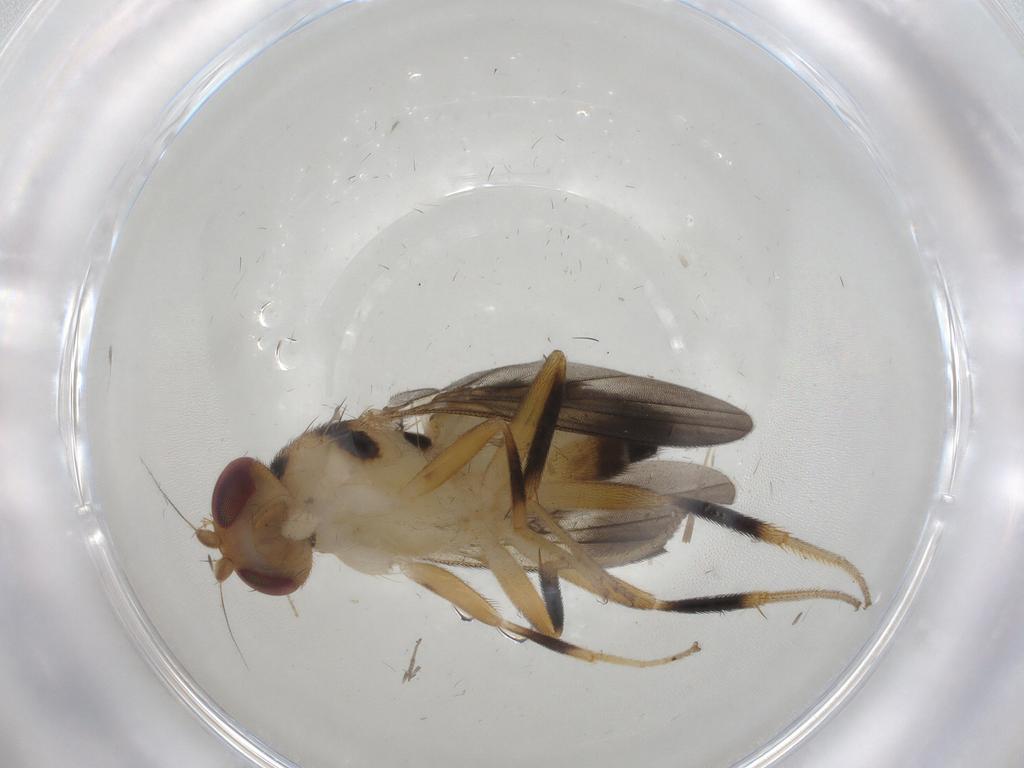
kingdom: Animalia
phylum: Arthropoda
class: Insecta
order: Diptera
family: Clusiidae
